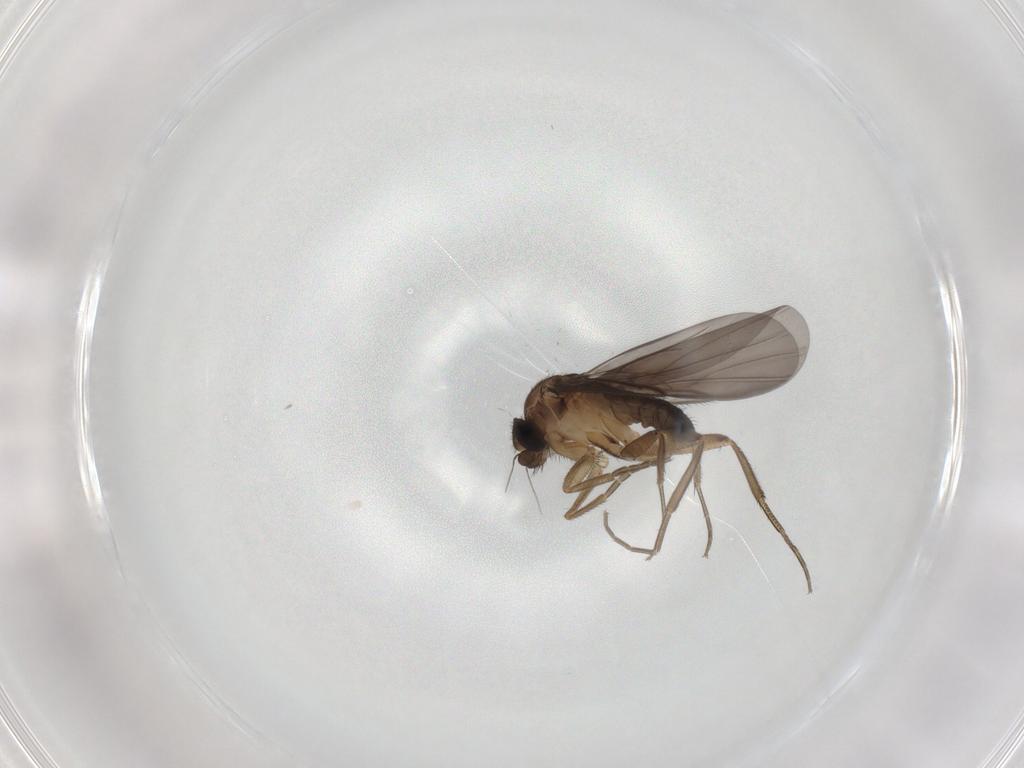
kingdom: Animalia
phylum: Arthropoda
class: Insecta
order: Diptera
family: Phoridae
